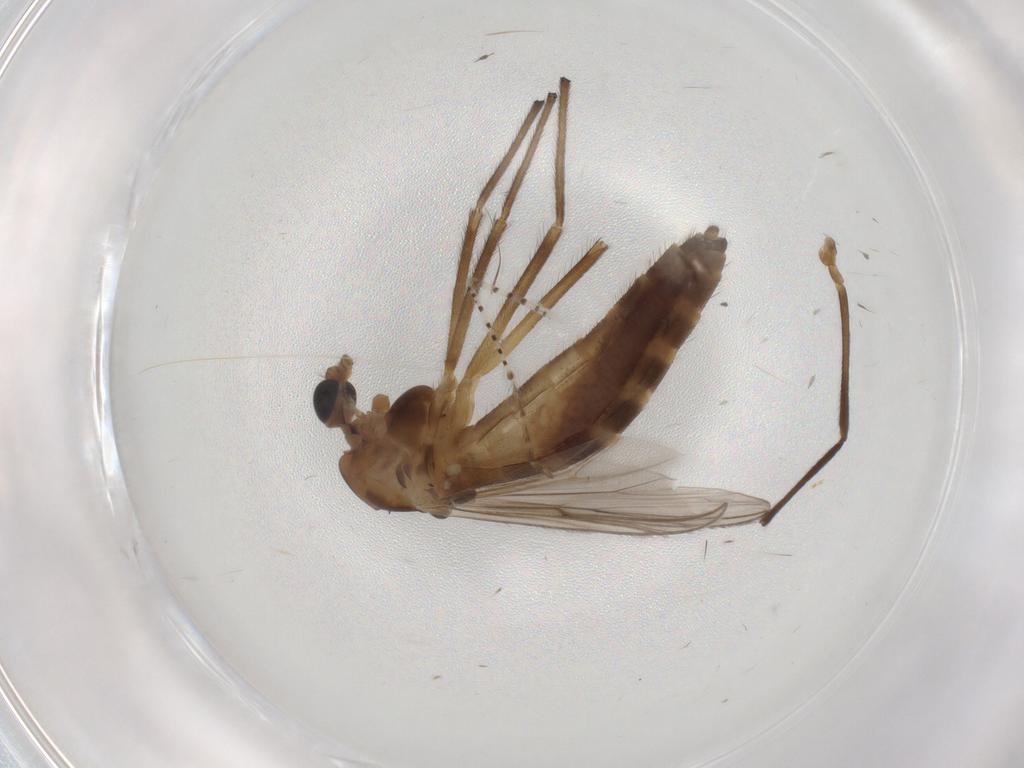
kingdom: Animalia
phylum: Arthropoda
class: Insecta
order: Diptera
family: Chironomidae
